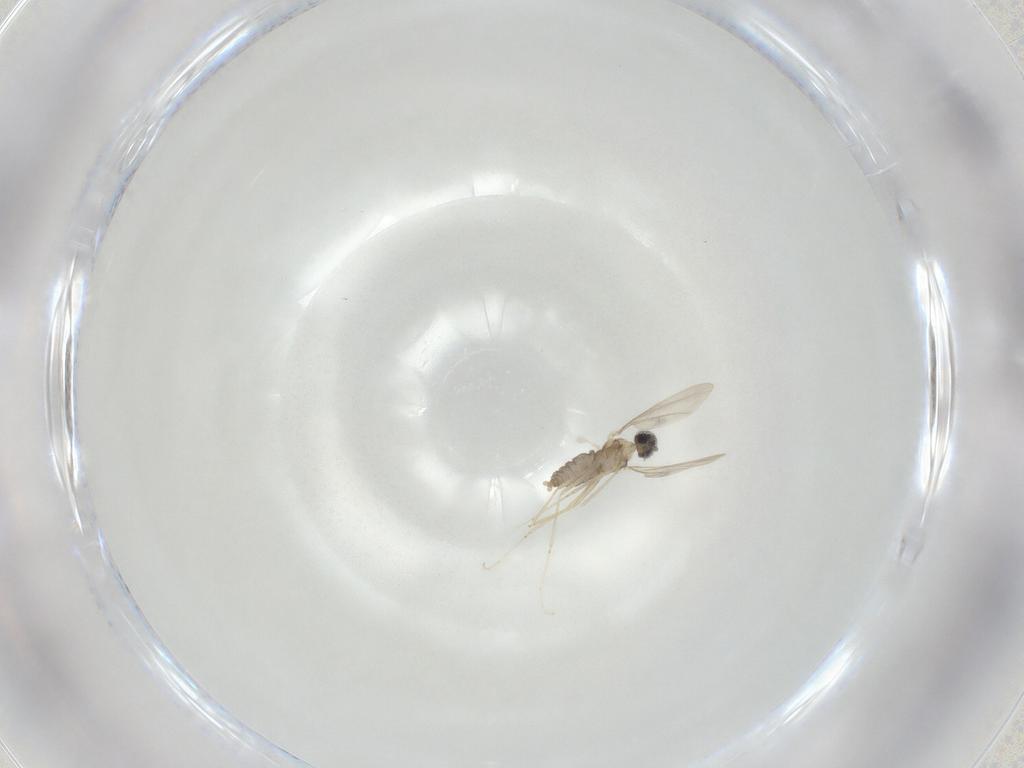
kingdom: Animalia
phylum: Arthropoda
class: Insecta
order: Diptera
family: Cecidomyiidae
